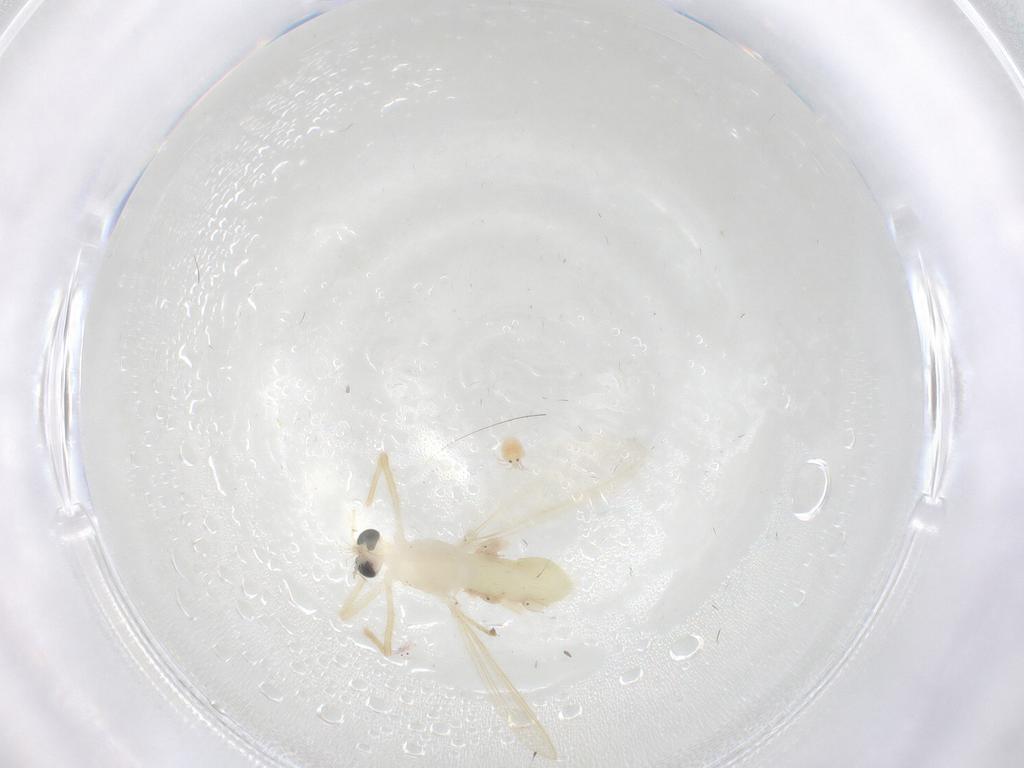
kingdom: Animalia
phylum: Arthropoda
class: Insecta
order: Diptera
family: Chironomidae
